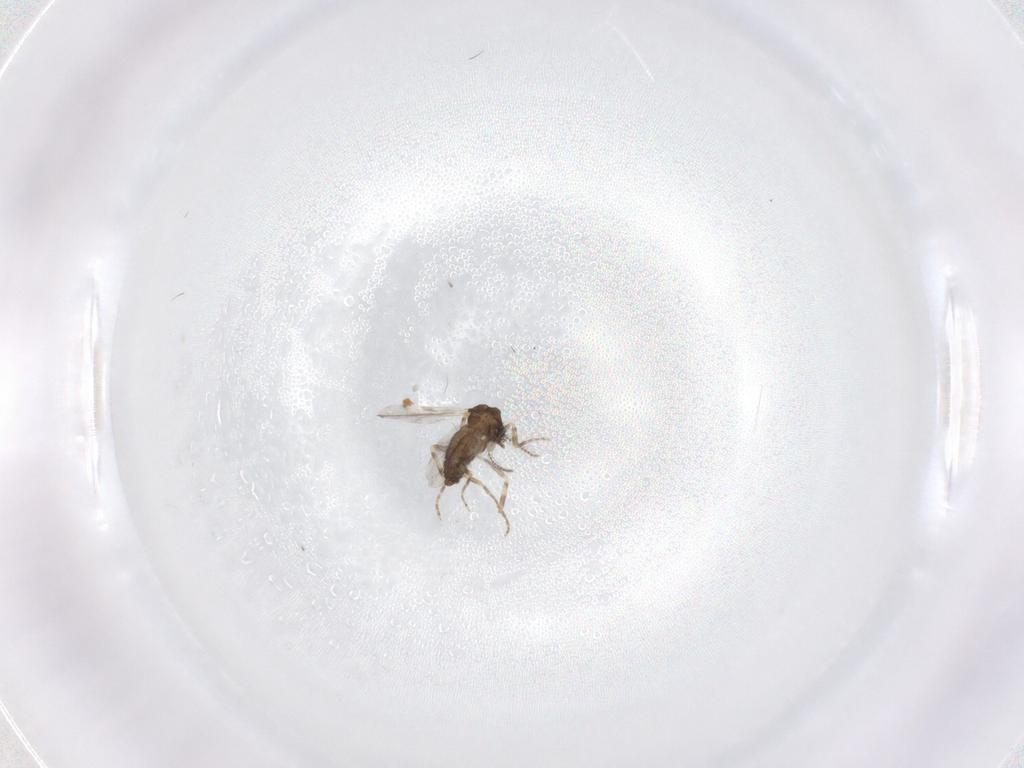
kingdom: Animalia
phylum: Arthropoda
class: Insecta
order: Diptera
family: Ceratopogonidae
